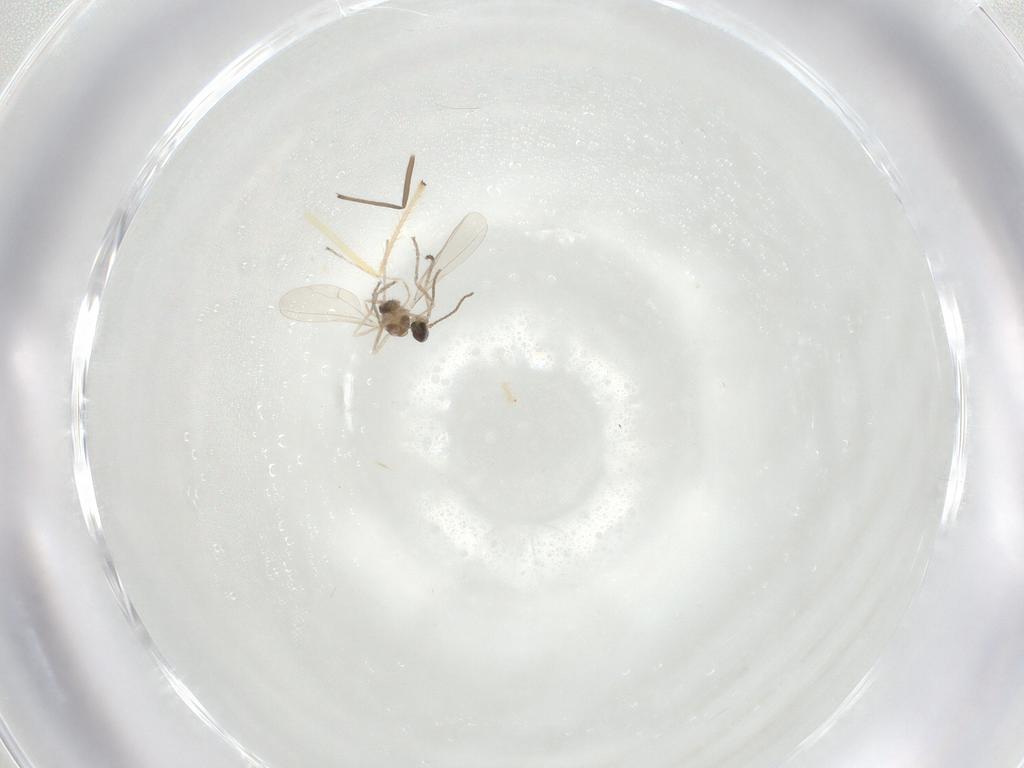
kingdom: Animalia
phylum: Arthropoda
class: Insecta
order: Diptera
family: Cecidomyiidae
